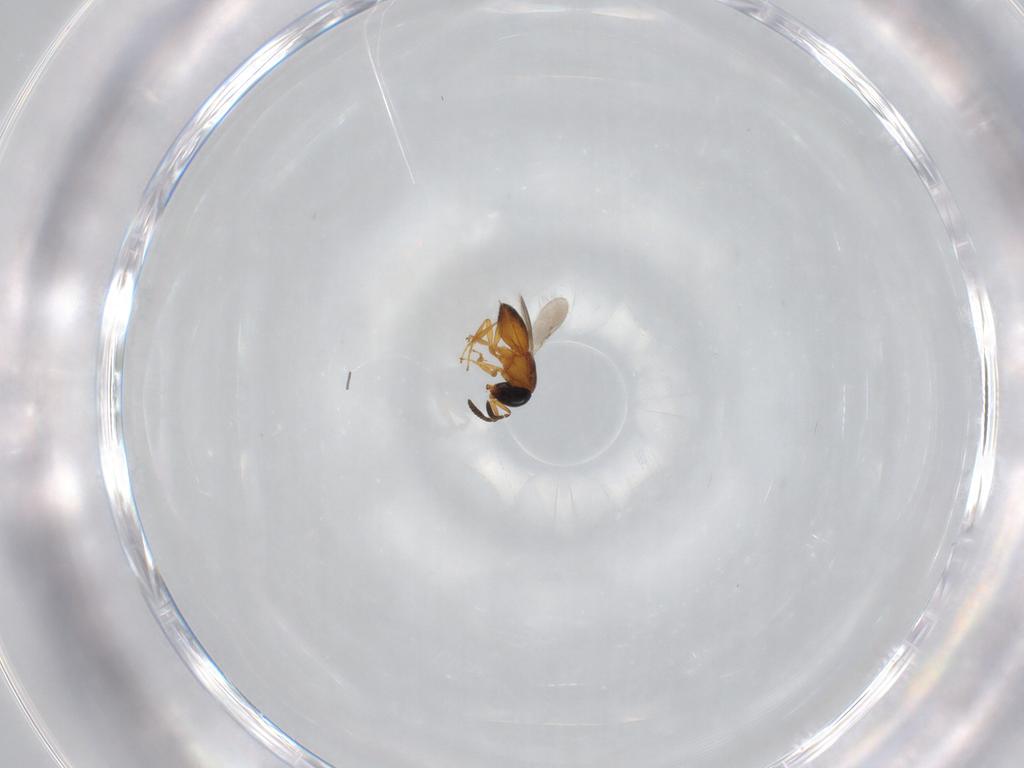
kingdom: Animalia
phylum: Arthropoda
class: Insecta
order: Hymenoptera
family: Scelionidae
